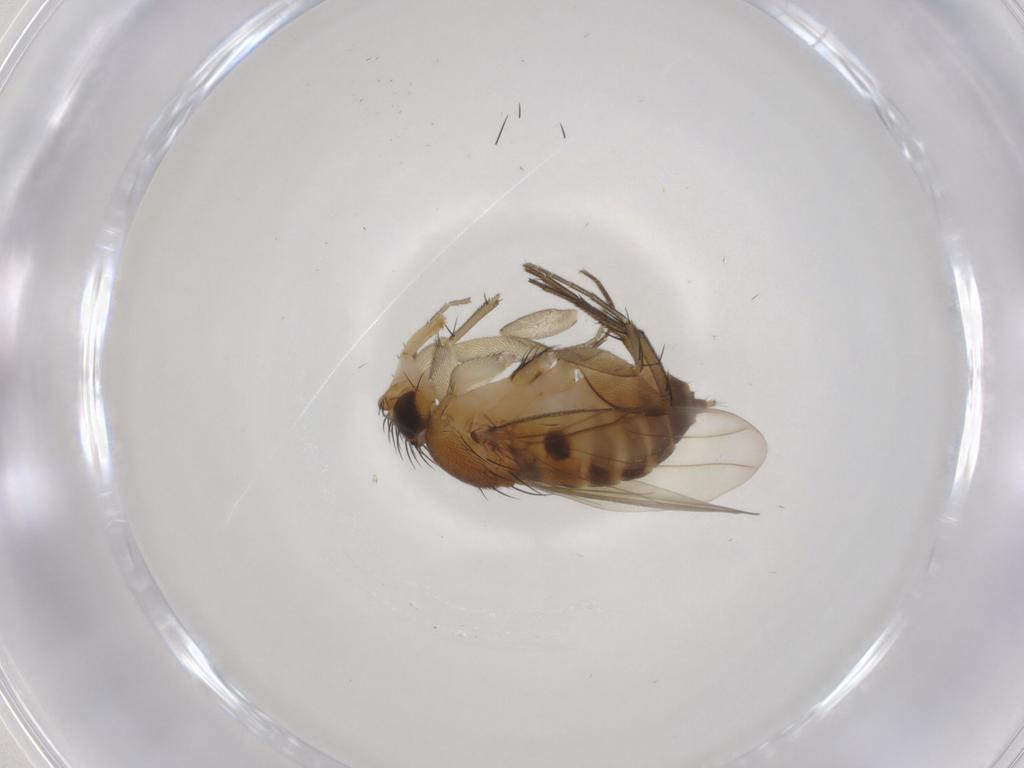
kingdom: Animalia
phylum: Arthropoda
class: Insecta
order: Diptera
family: Phoridae
